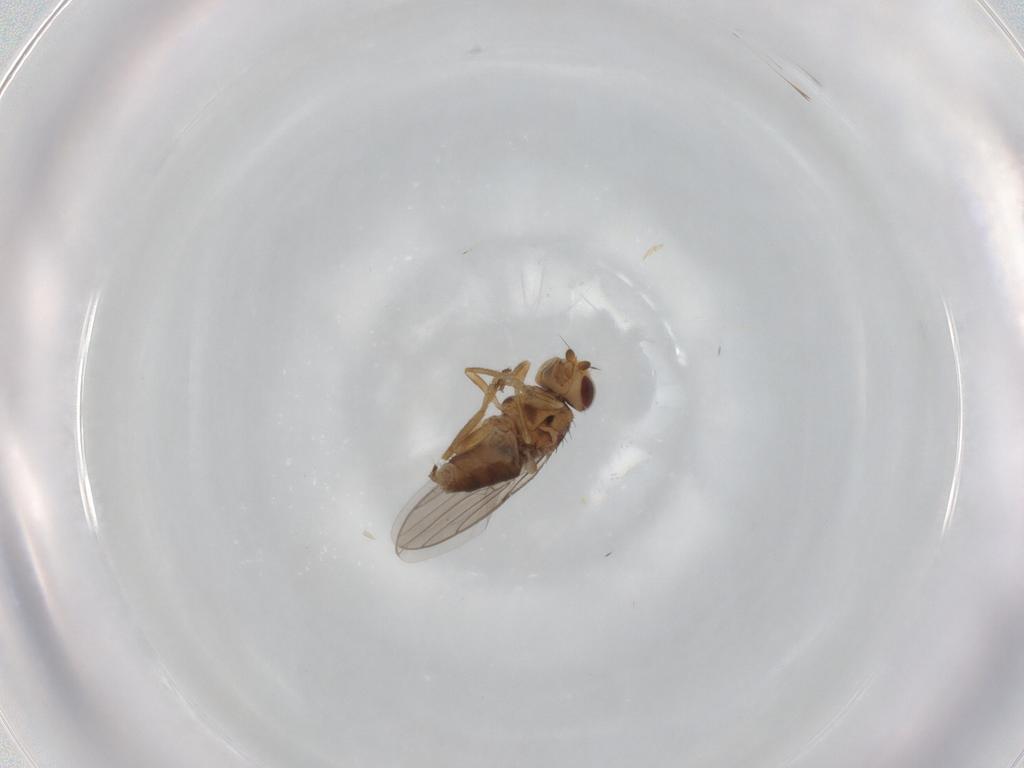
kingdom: Animalia
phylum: Arthropoda
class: Insecta
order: Diptera
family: Chloropidae
